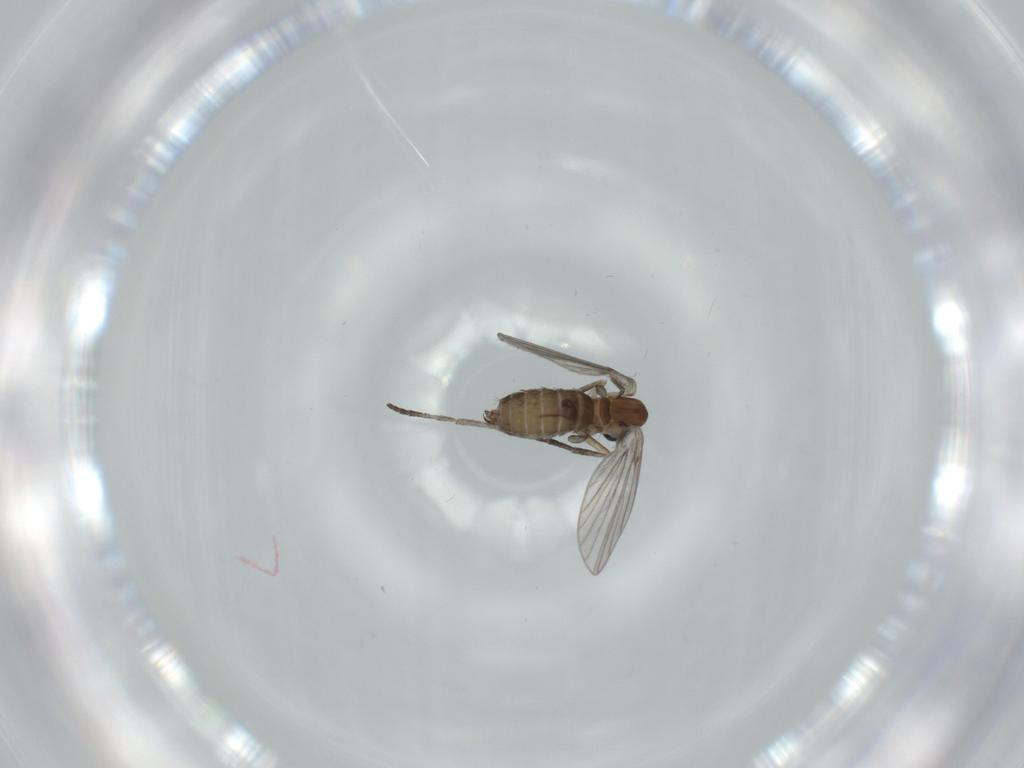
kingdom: Animalia
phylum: Arthropoda
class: Insecta
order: Diptera
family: Psychodidae
